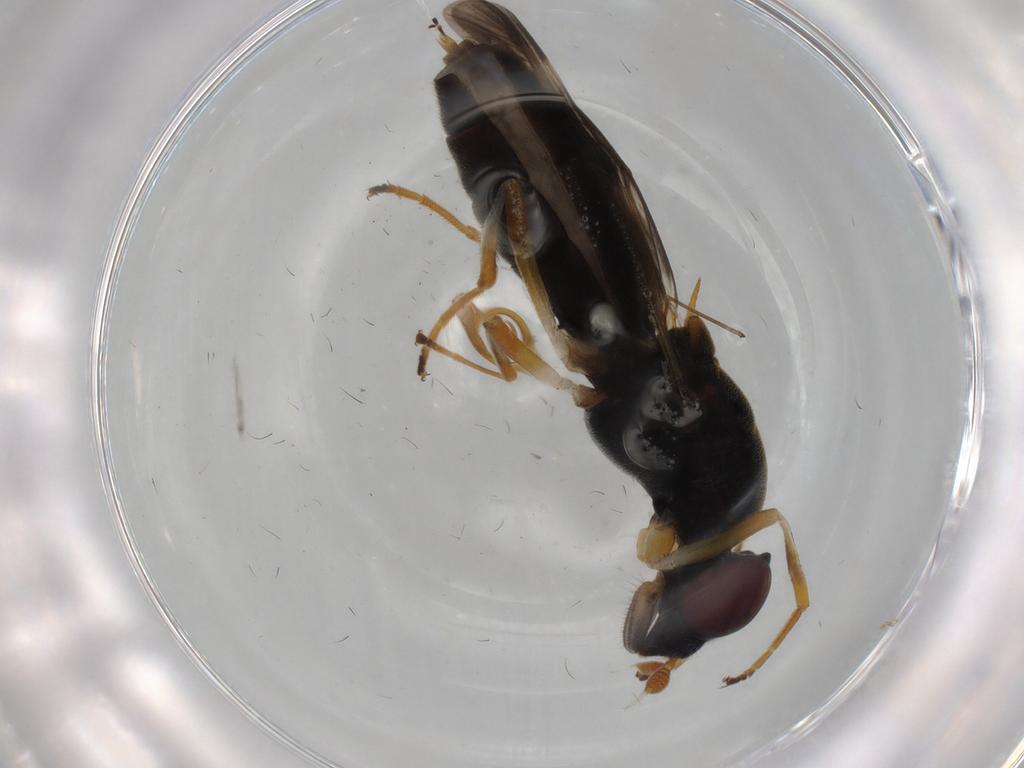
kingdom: Animalia
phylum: Arthropoda
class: Insecta
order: Diptera
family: Stratiomyidae
